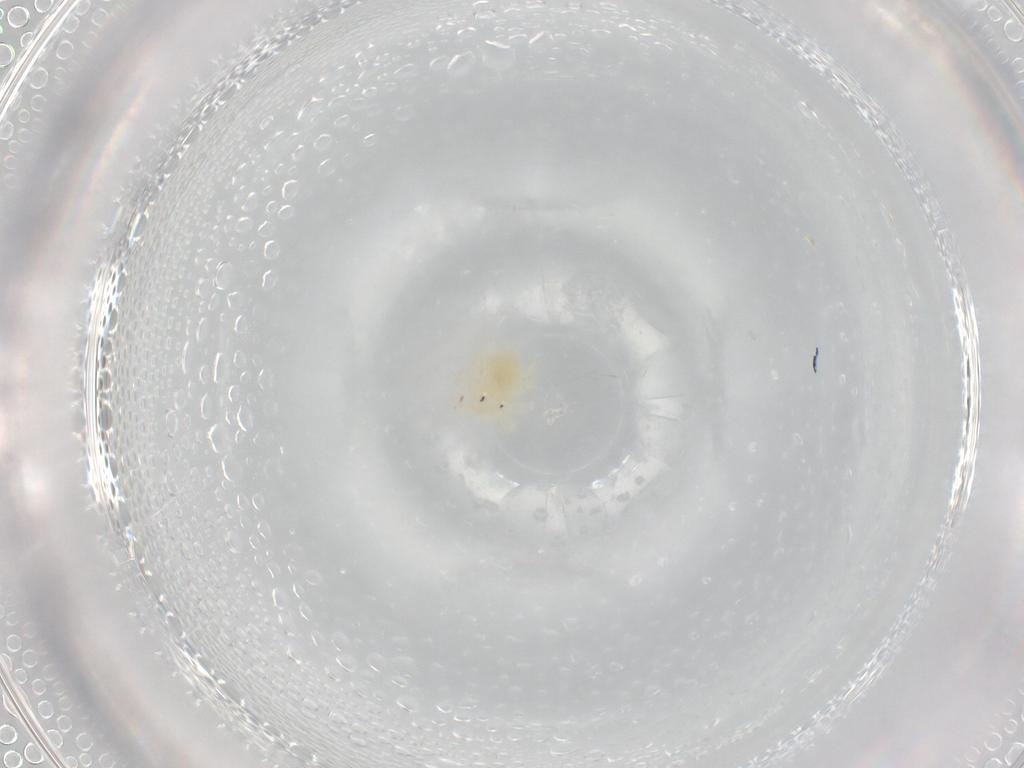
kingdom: Animalia
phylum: Arthropoda
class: Arachnida
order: Trombidiformes
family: Anystidae
